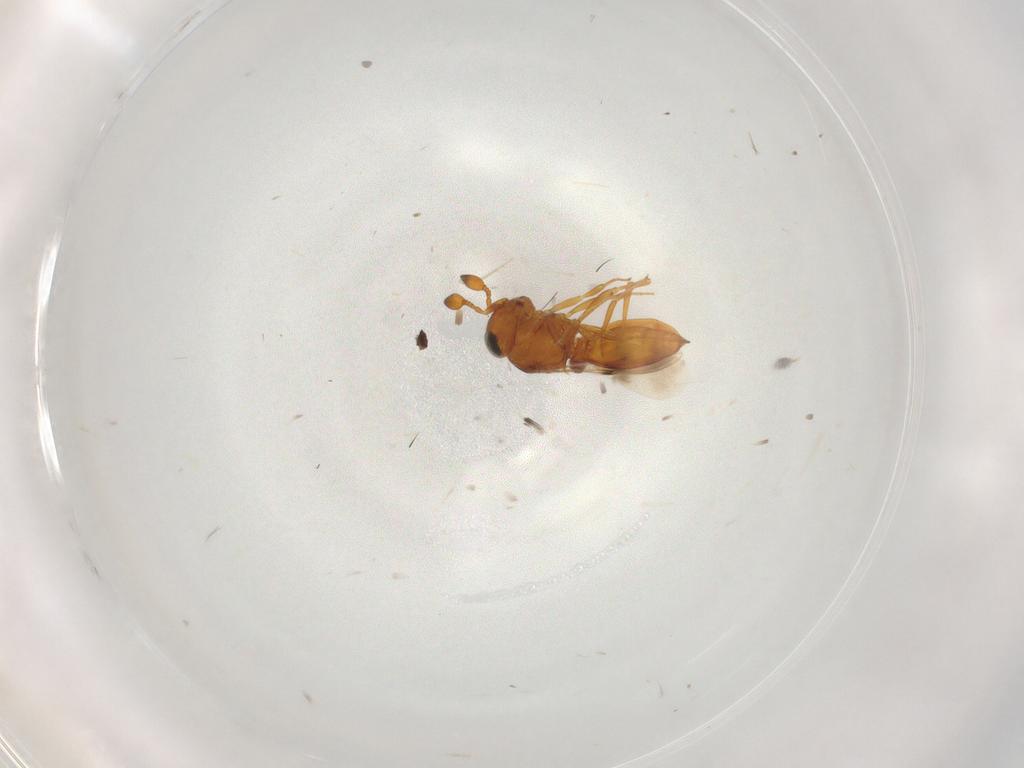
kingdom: Animalia
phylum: Arthropoda
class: Insecta
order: Hymenoptera
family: Scelionidae
